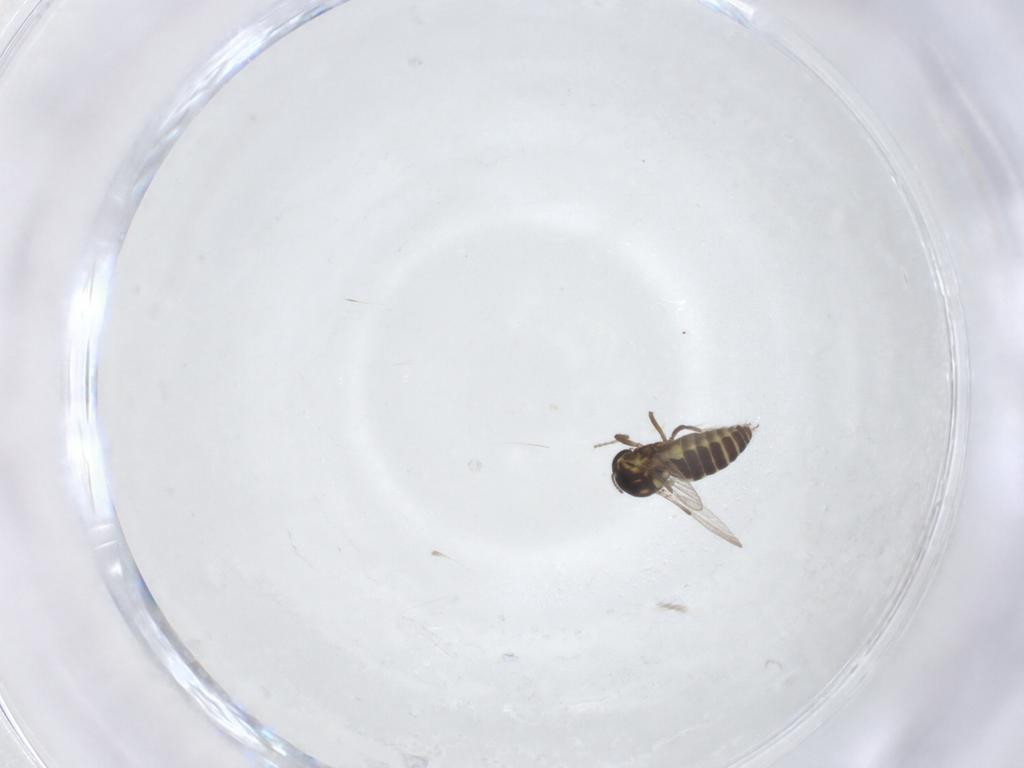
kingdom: Animalia
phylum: Arthropoda
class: Insecta
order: Diptera
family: Ceratopogonidae
